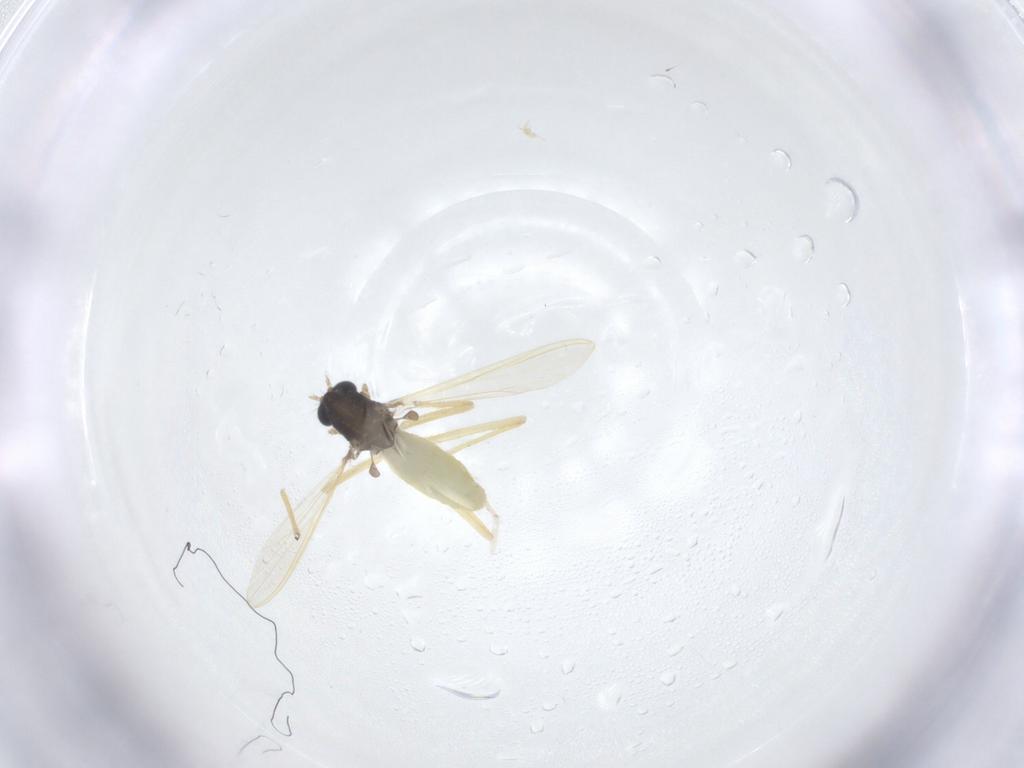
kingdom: Animalia
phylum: Arthropoda
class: Insecta
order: Diptera
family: Chironomidae
